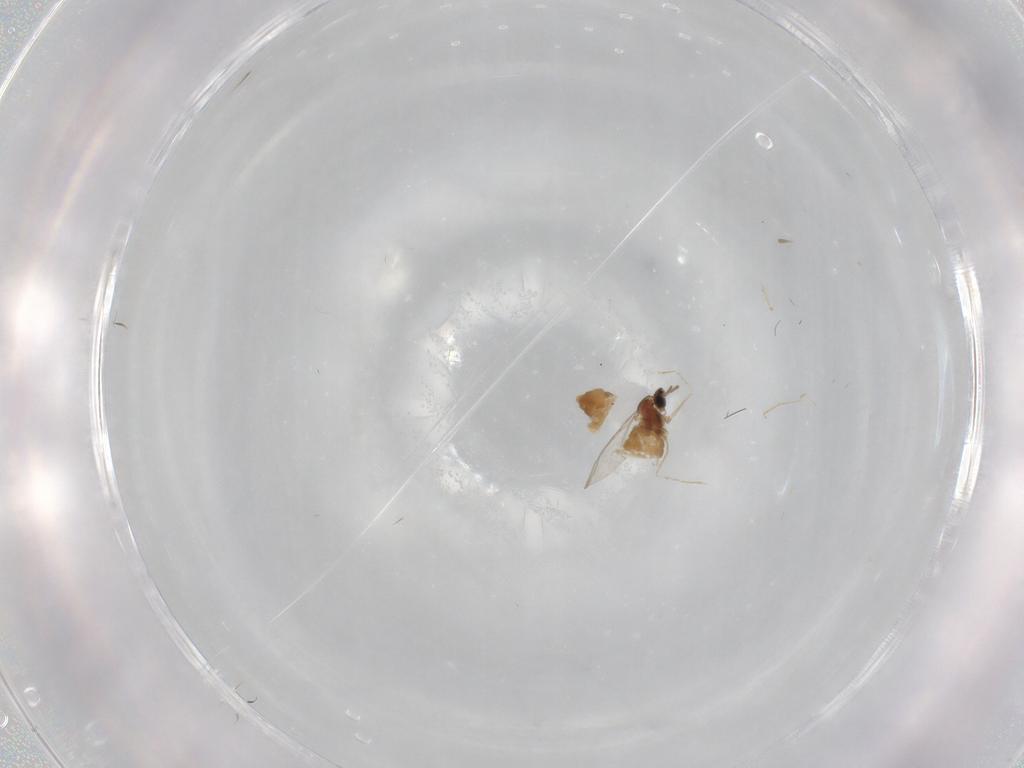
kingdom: Animalia
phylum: Arthropoda
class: Insecta
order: Diptera
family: Cecidomyiidae
